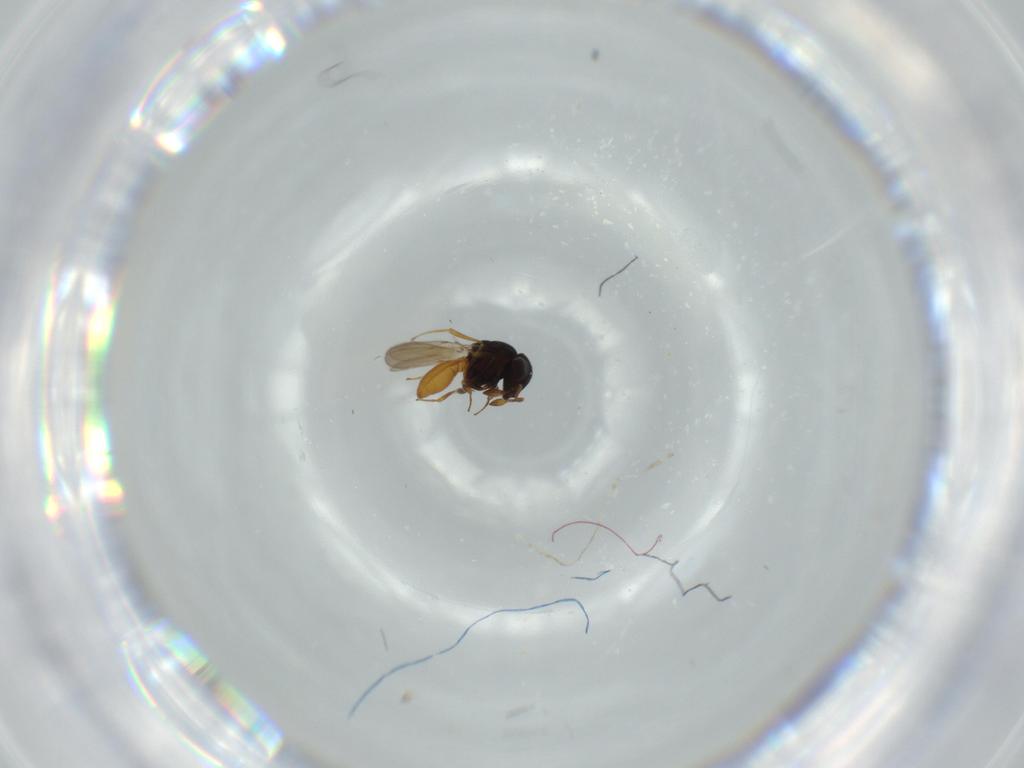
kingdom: Animalia
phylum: Arthropoda
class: Insecta
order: Hymenoptera
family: Scelionidae
